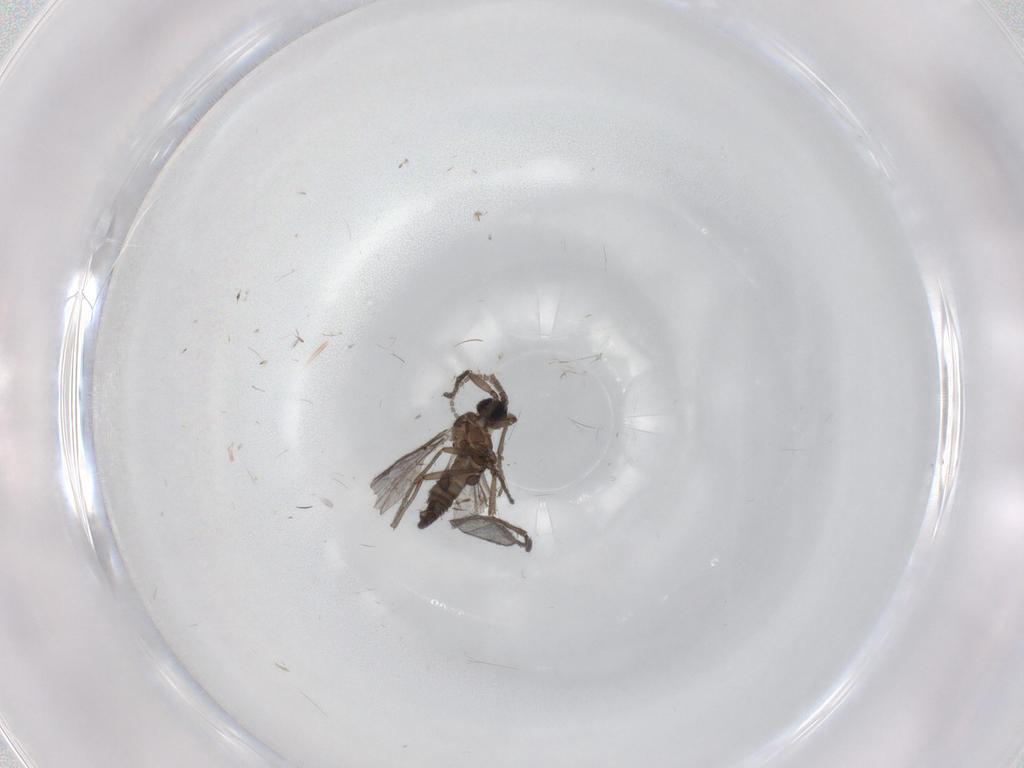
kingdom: Animalia
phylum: Arthropoda
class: Insecta
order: Diptera
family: Sciaridae
